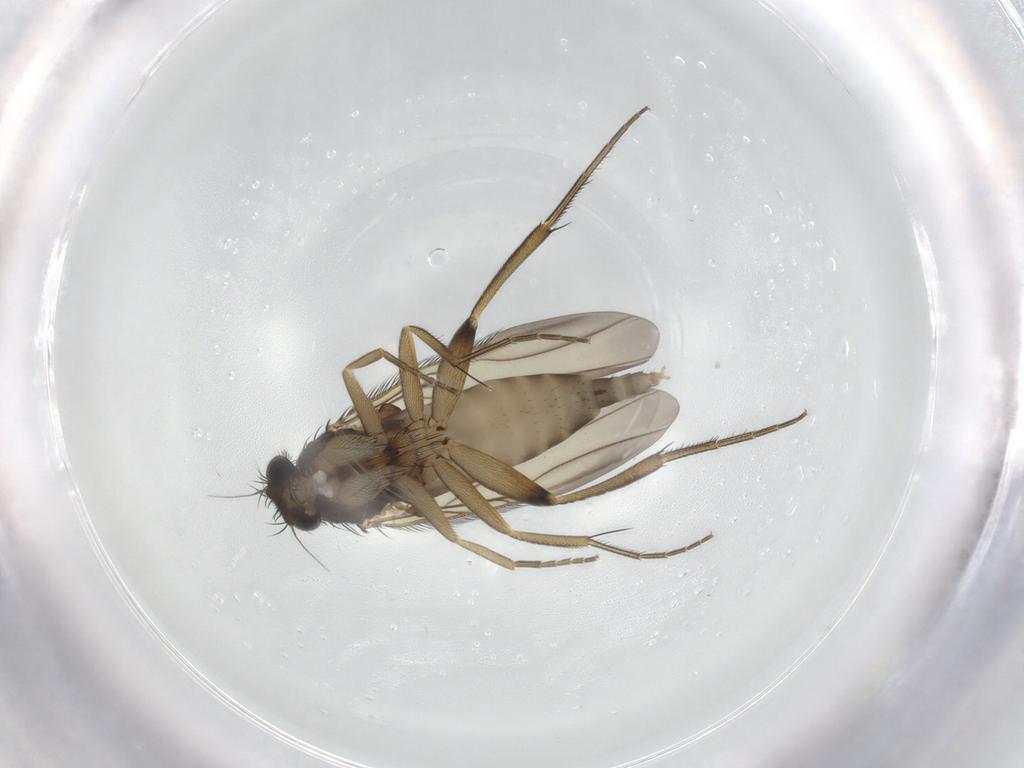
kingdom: Animalia
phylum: Arthropoda
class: Insecta
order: Diptera
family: Phoridae
